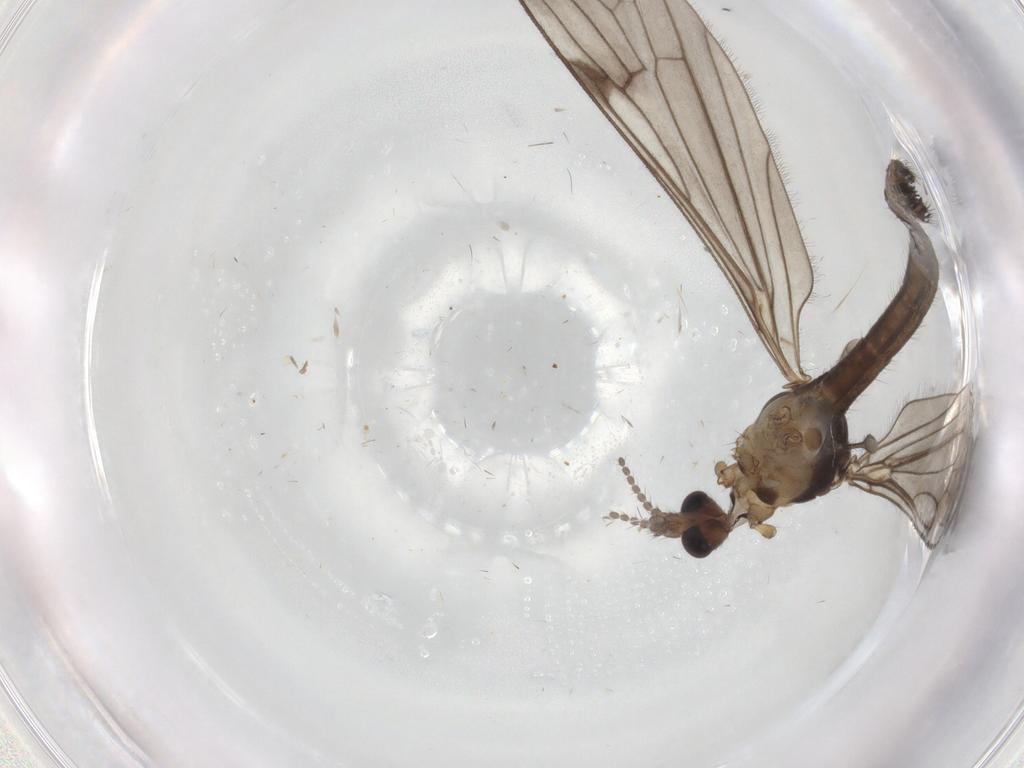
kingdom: Animalia
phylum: Arthropoda
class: Insecta
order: Diptera
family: Phoridae
